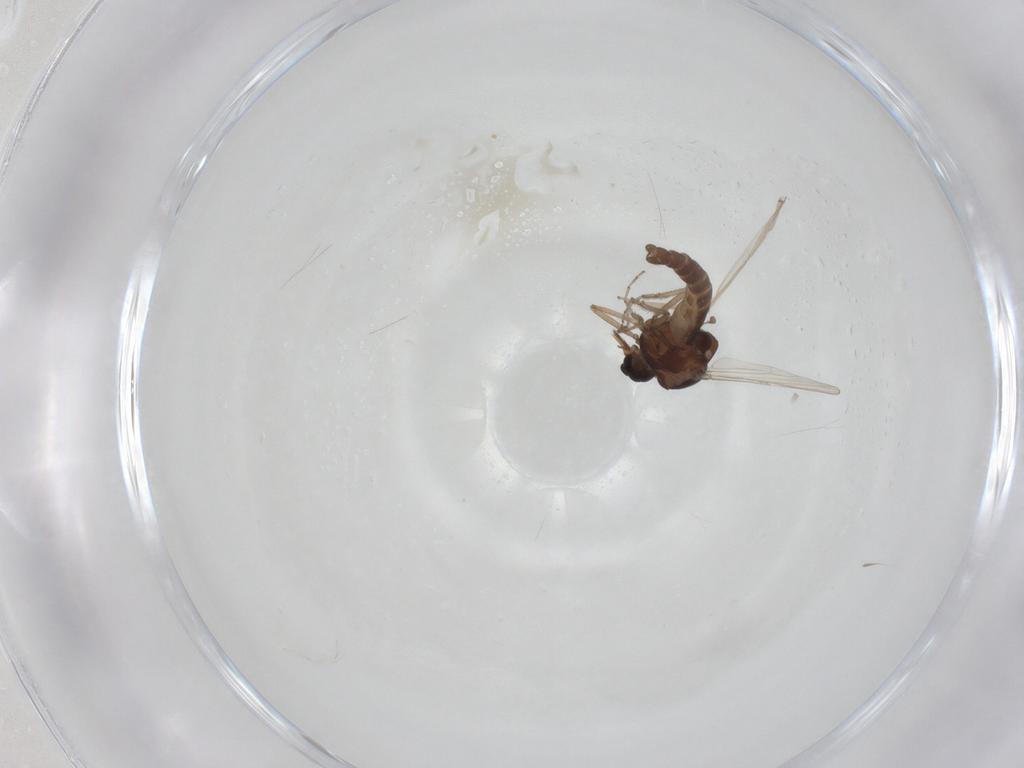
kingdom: Animalia
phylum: Arthropoda
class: Insecta
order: Diptera
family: Ceratopogonidae
